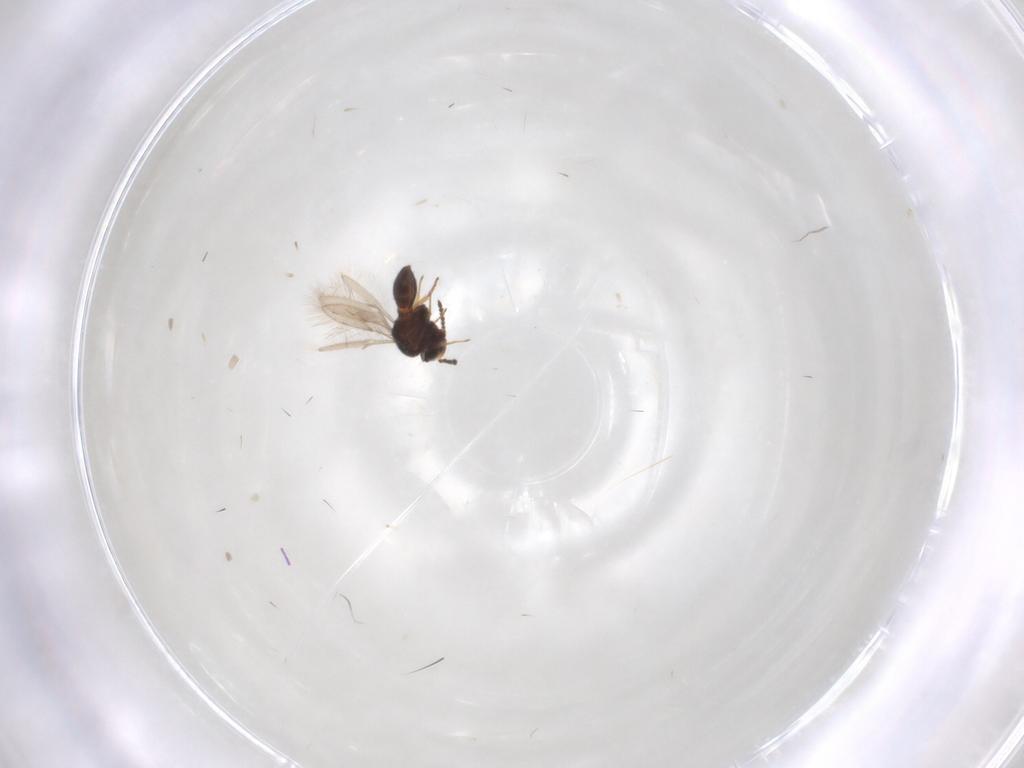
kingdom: Animalia
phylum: Arthropoda
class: Insecta
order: Hymenoptera
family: Scelionidae
